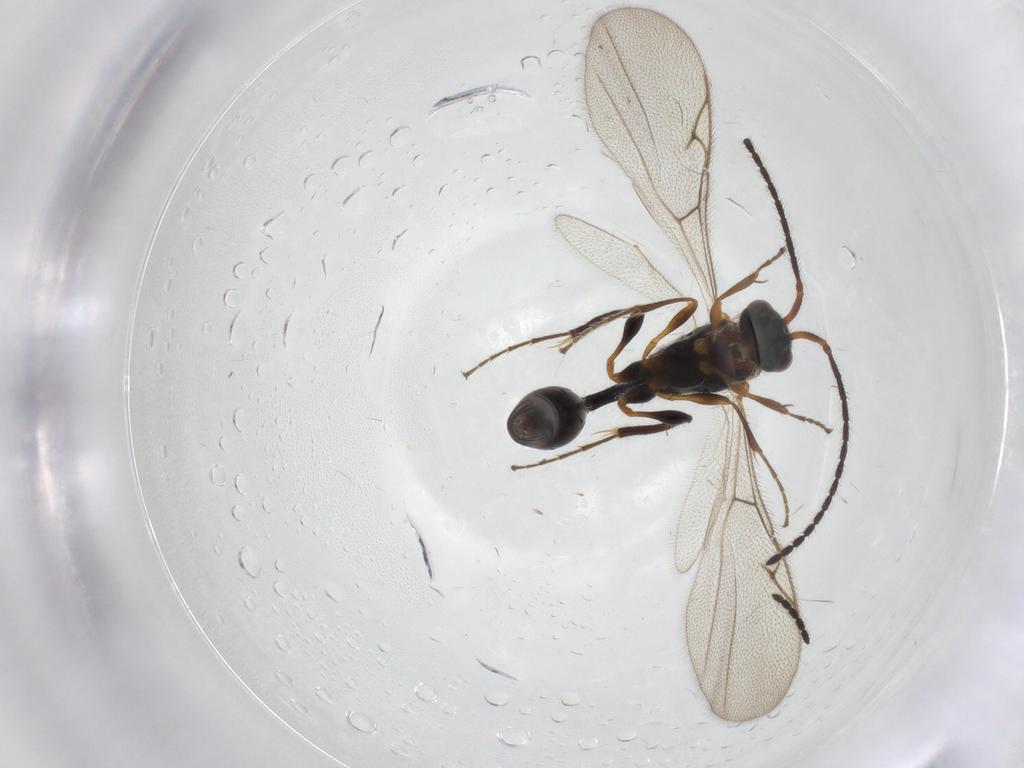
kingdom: Animalia
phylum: Arthropoda
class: Insecta
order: Hymenoptera
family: Diapriidae
